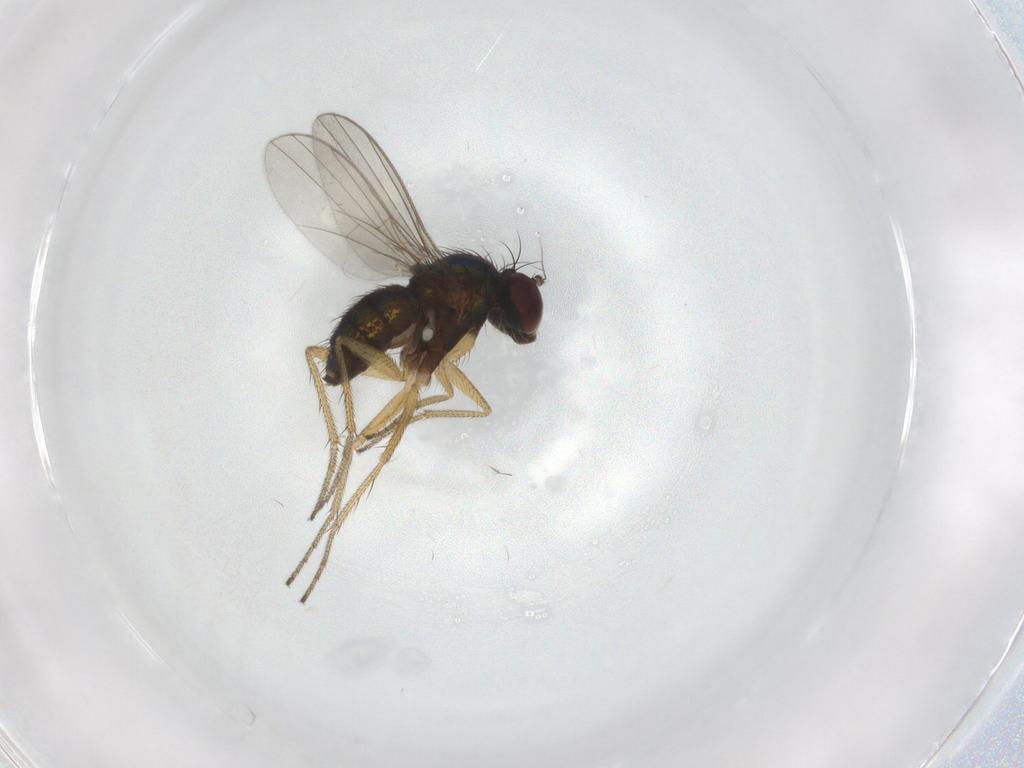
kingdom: Animalia
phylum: Arthropoda
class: Insecta
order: Diptera
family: Dolichopodidae
